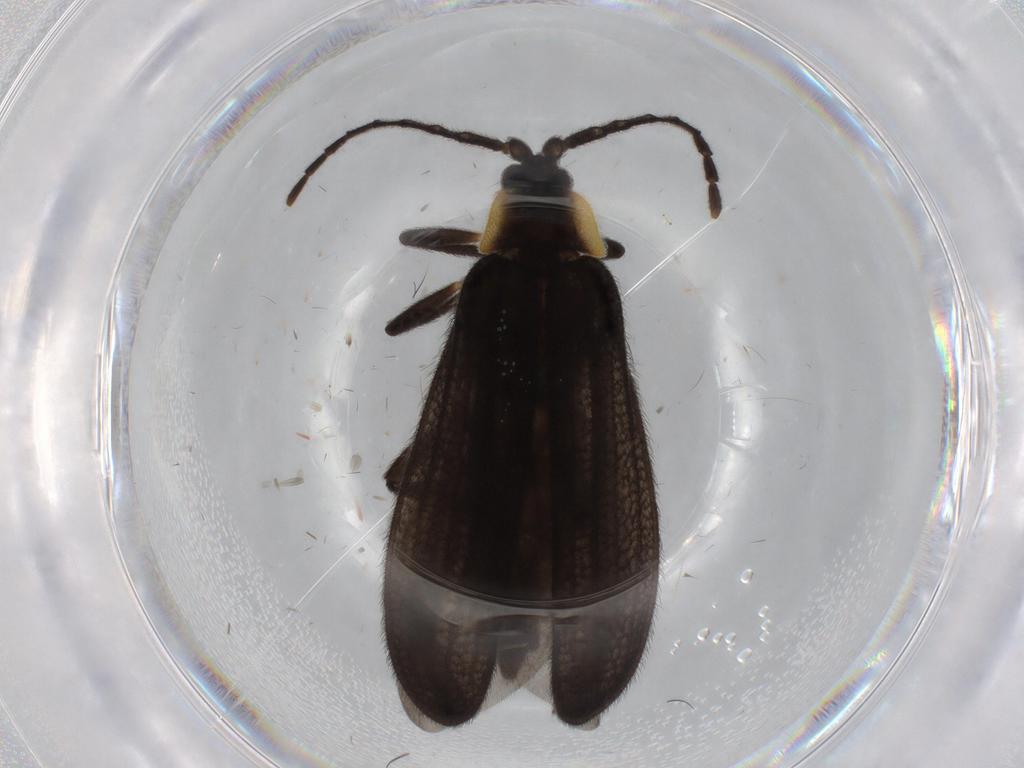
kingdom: Animalia
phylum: Arthropoda
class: Insecta
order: Coleoptera
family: Lycidae
